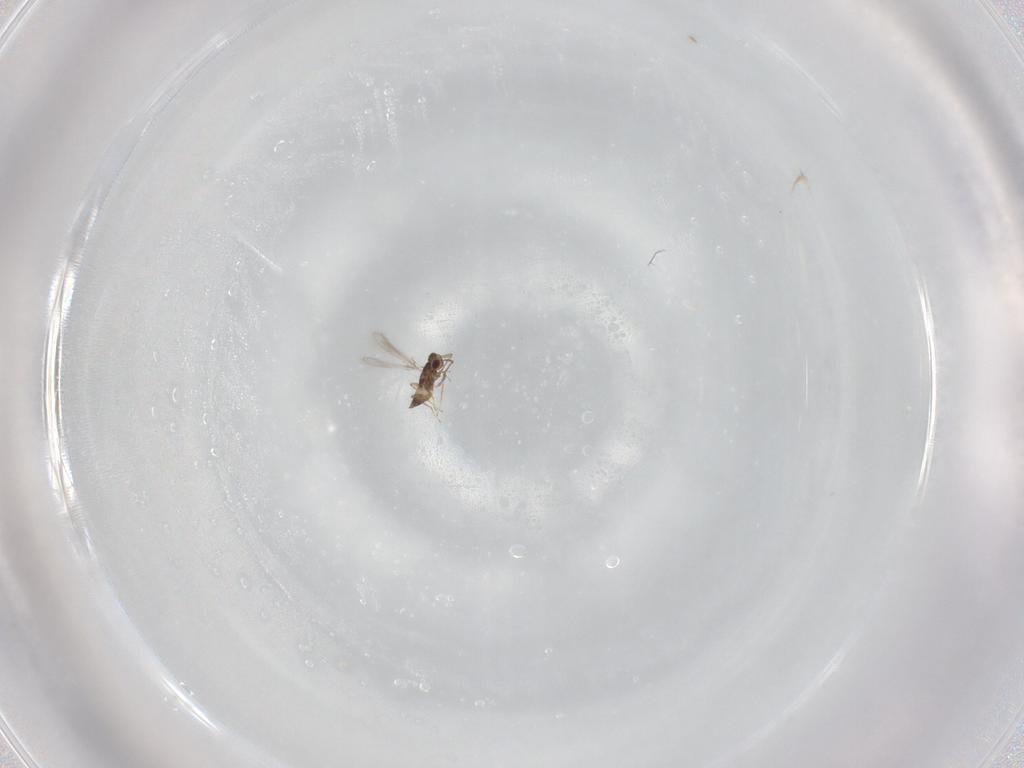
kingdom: Animalia
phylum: Arthropoda
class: Insecta
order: Hymenoptera
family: Mymaridae
